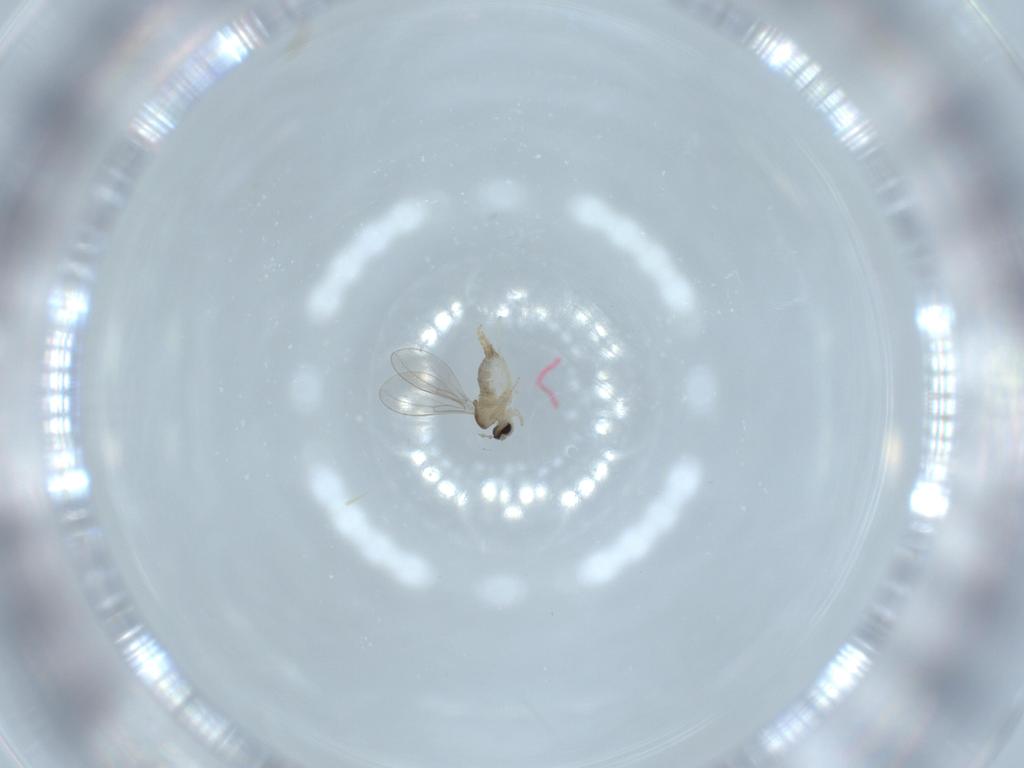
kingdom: Animalia
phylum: Arthropoda
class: Insecta
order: Diptera
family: Cecidomyiidae
